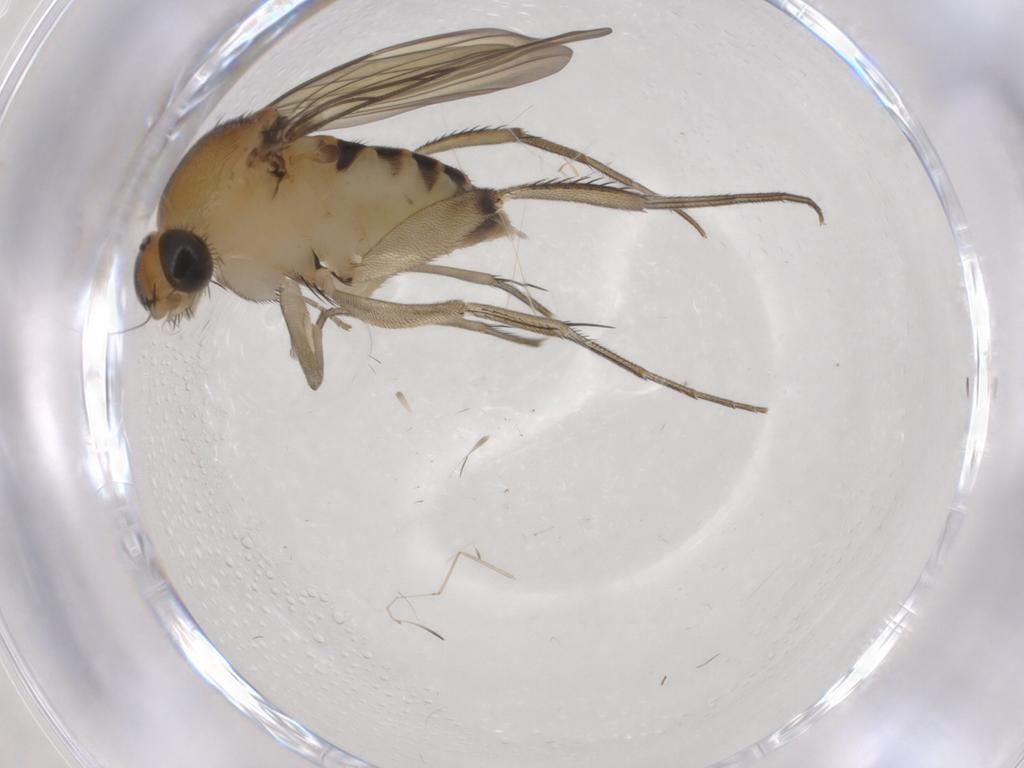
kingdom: Animalia
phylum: Arthropoda
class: Insecta
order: Diptera
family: Phoridae
